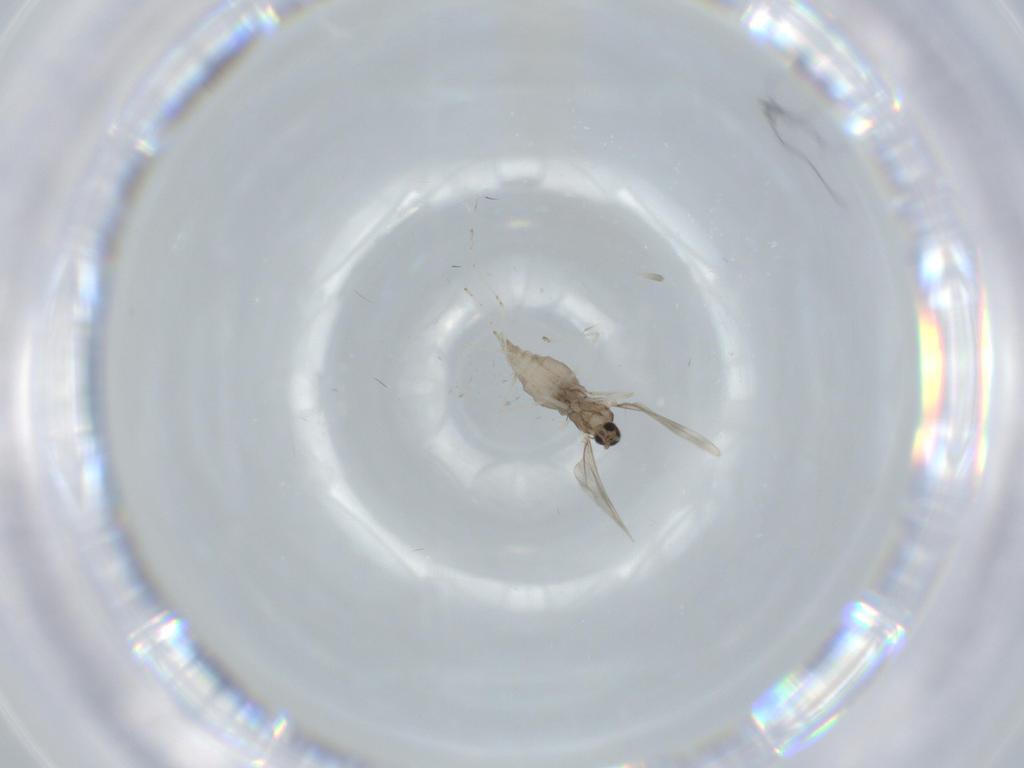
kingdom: Animalia
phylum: Arthropoda
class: Insecta
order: Diptera
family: Cecidomyiidae
